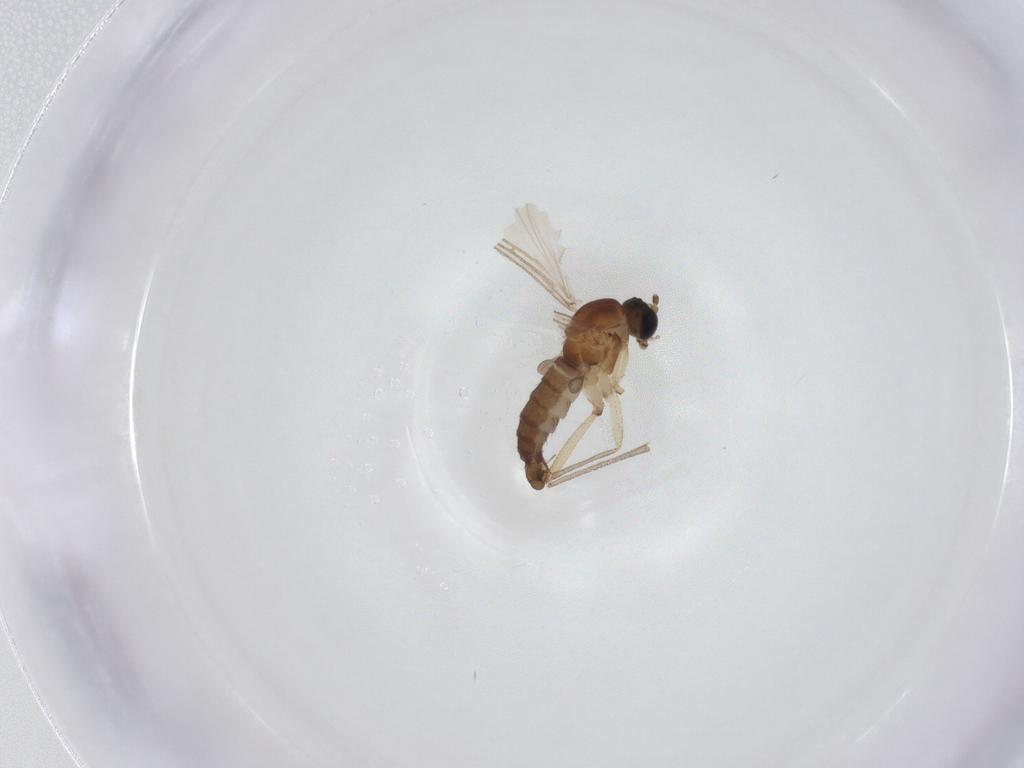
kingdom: Animalia
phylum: Arthropoda
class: Insecta
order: Diptera
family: Sciaridae
